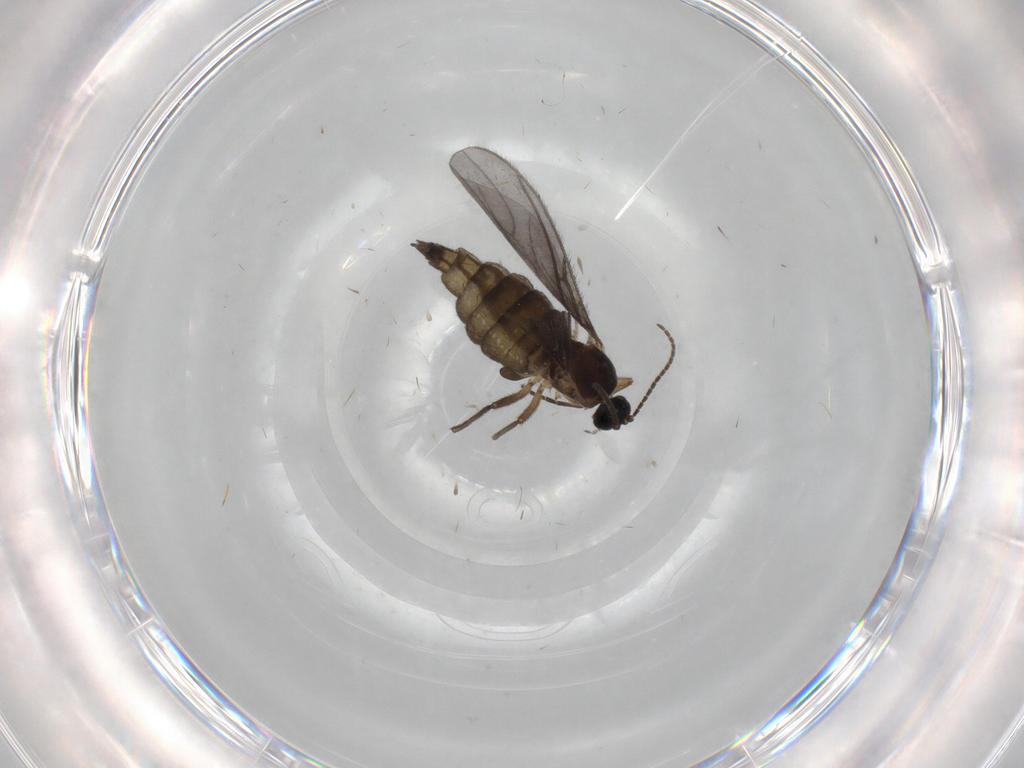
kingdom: Animalia
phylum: Arthropoda
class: Insecta
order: Diptera
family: Sciaridae
